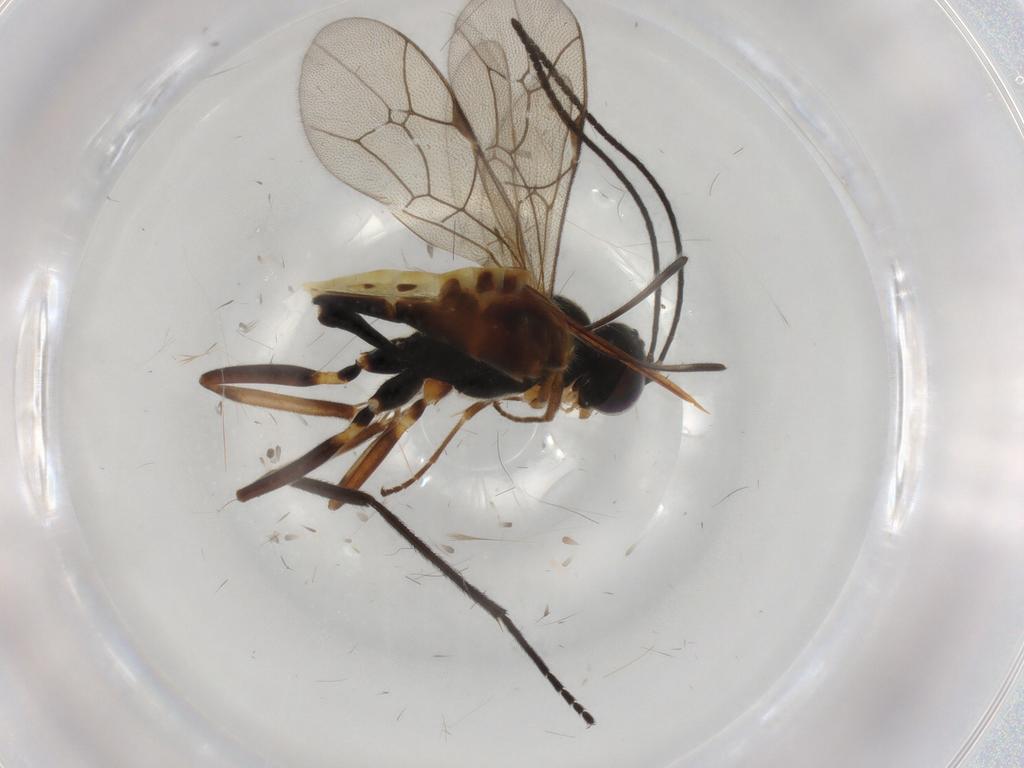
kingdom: Animalia
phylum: Arthropoda
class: Insecta
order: Hymenoptera
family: Ichneumonidae
